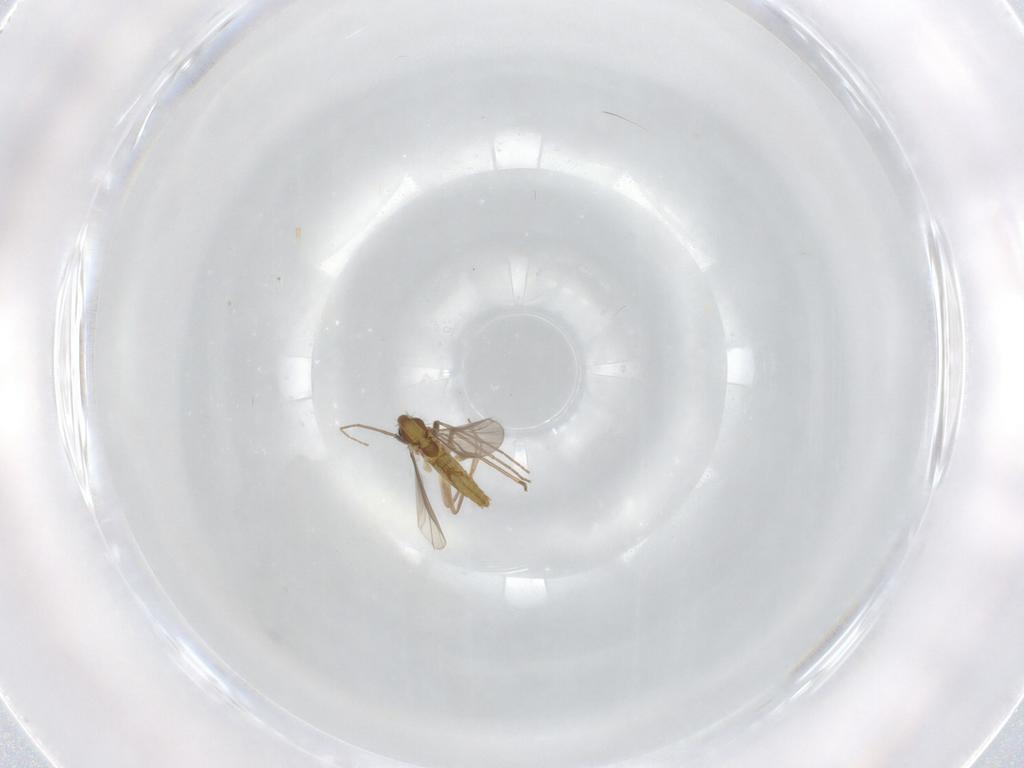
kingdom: Animalia
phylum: Arthropoda
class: Insecta
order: Diptera
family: Chironomidae
